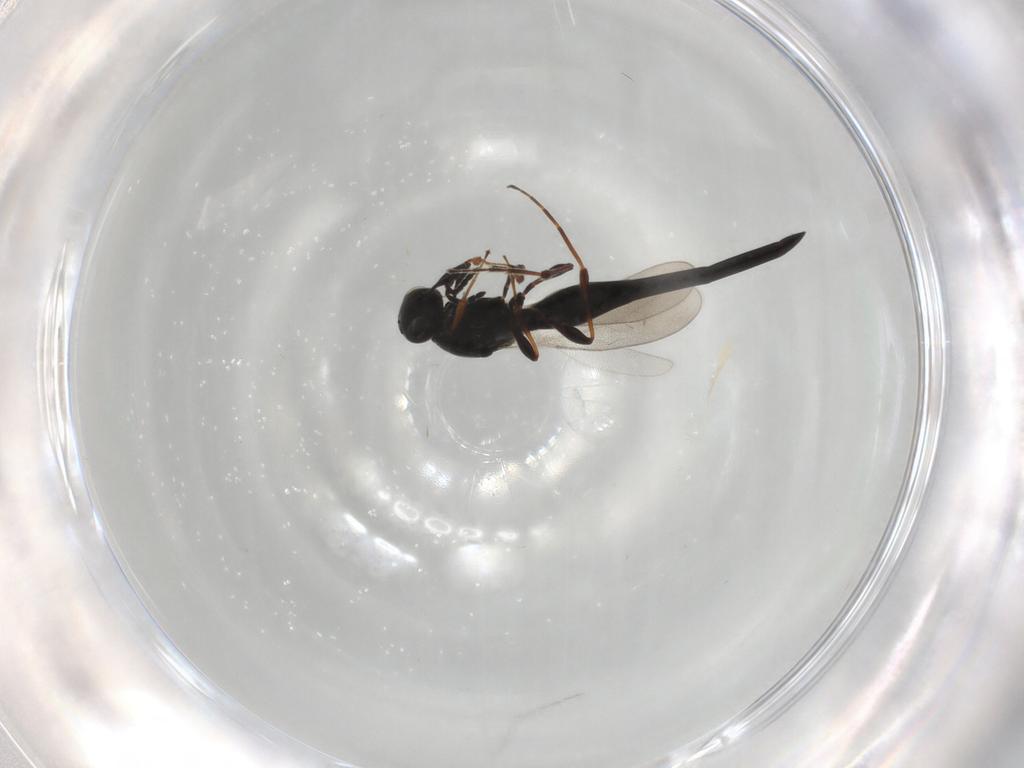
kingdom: Animalia
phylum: Arthropoda
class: Insecta
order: Hymenoptera
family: Platygastridae
